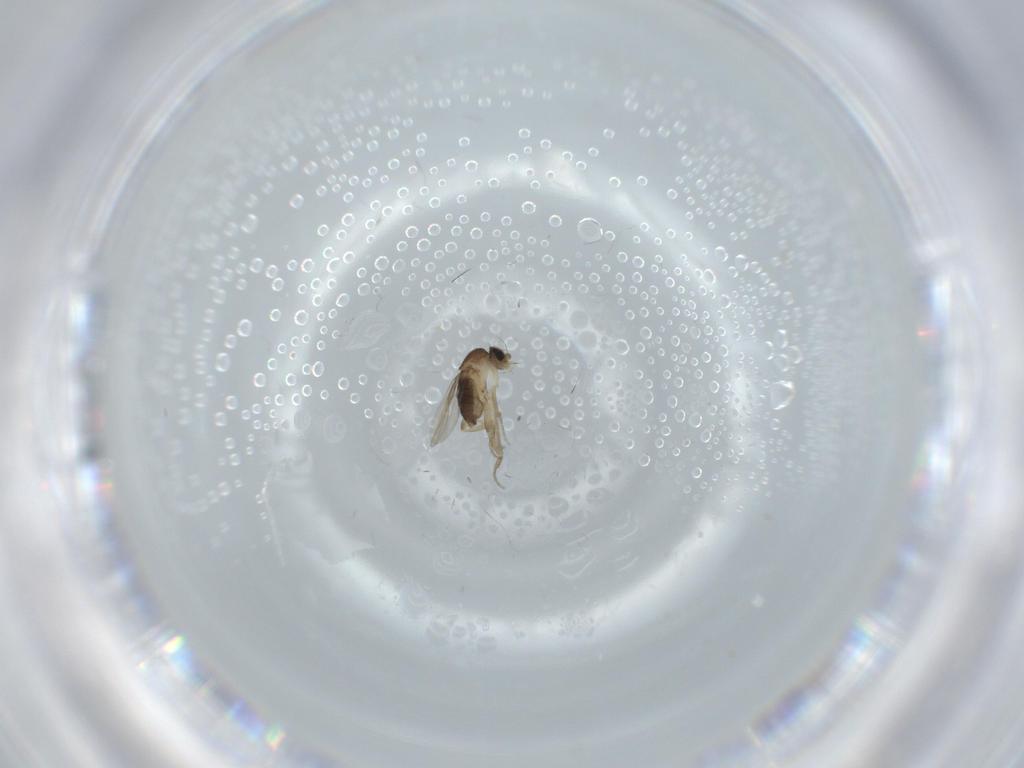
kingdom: Animalia
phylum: Arthropoda
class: Insecta
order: Diptera
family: Phoridae
